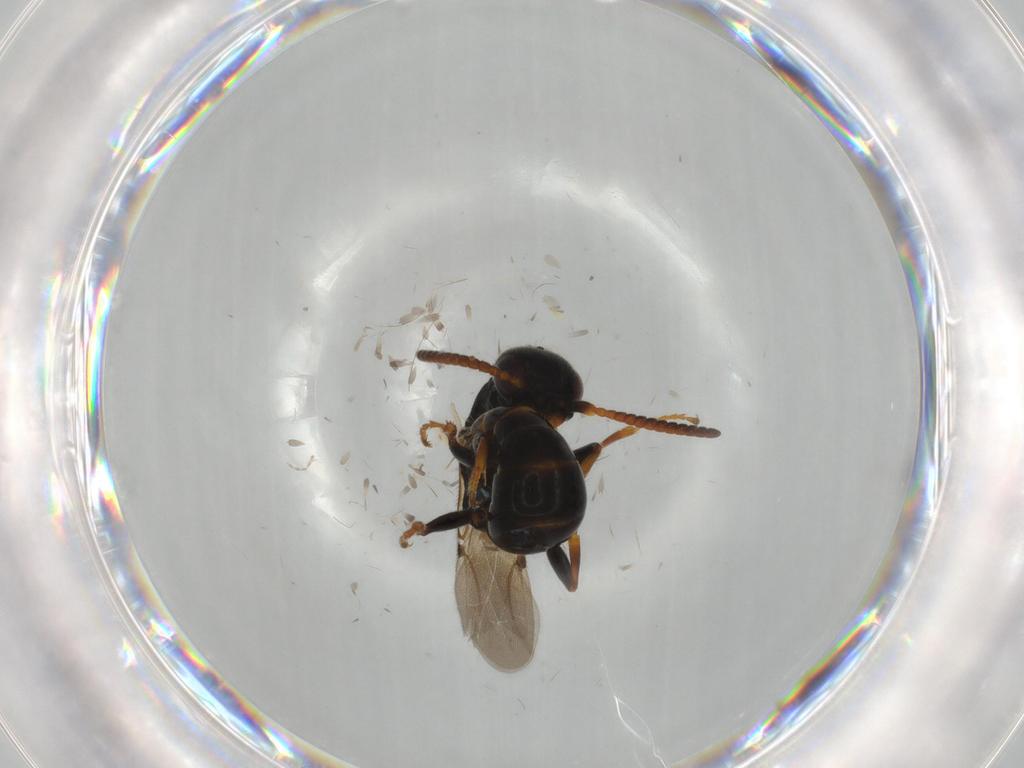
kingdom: Animalia
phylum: Arthropoda
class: Insecta
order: Hymenoptera
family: Bethylidae
